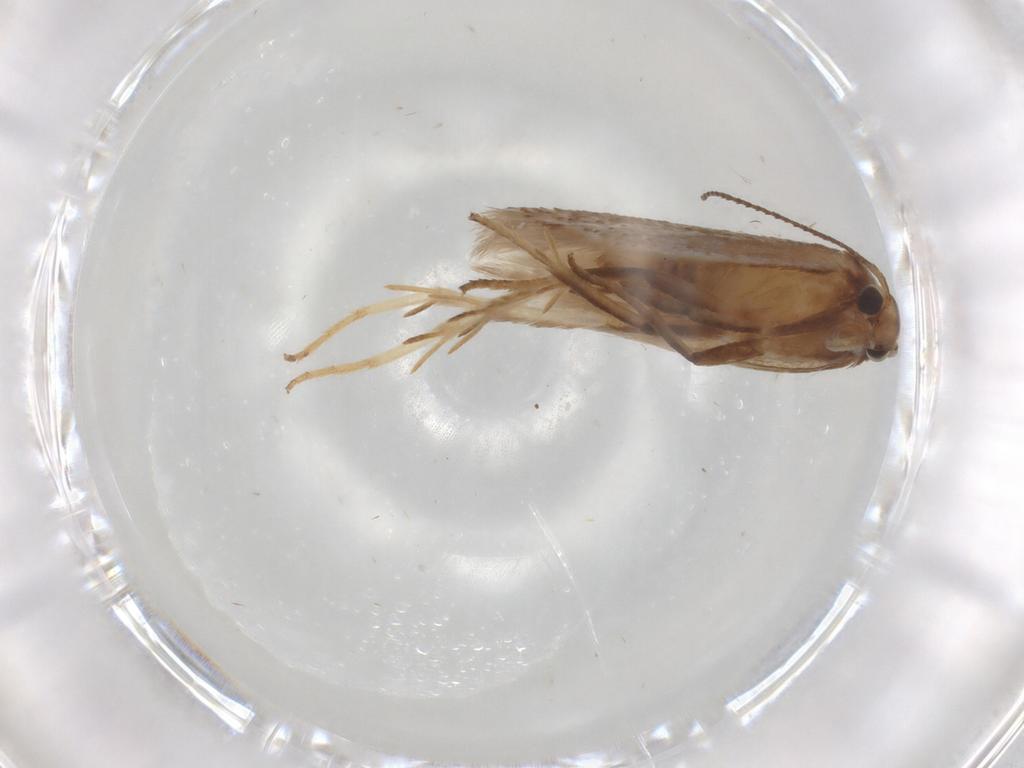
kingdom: Animalia
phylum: Arthropoda
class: Insecta
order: Lepidoptera
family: Gelechiidae
